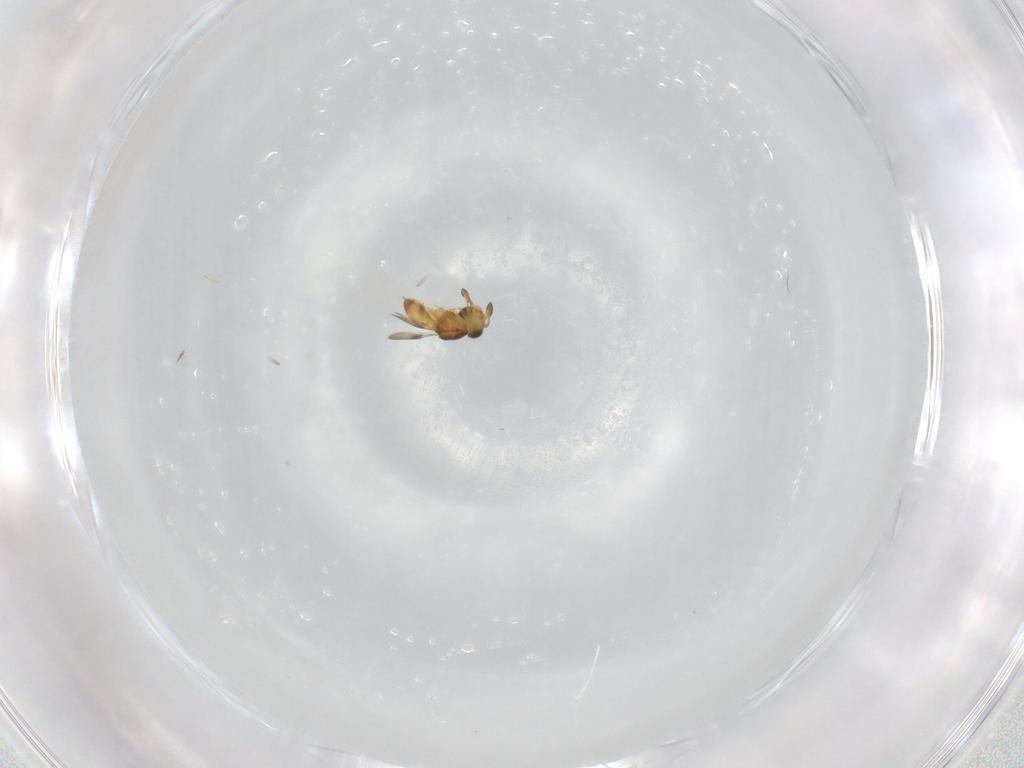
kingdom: Animalia
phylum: Arthropoda
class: Insecta
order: Hymenoptera
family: Scelionidae
